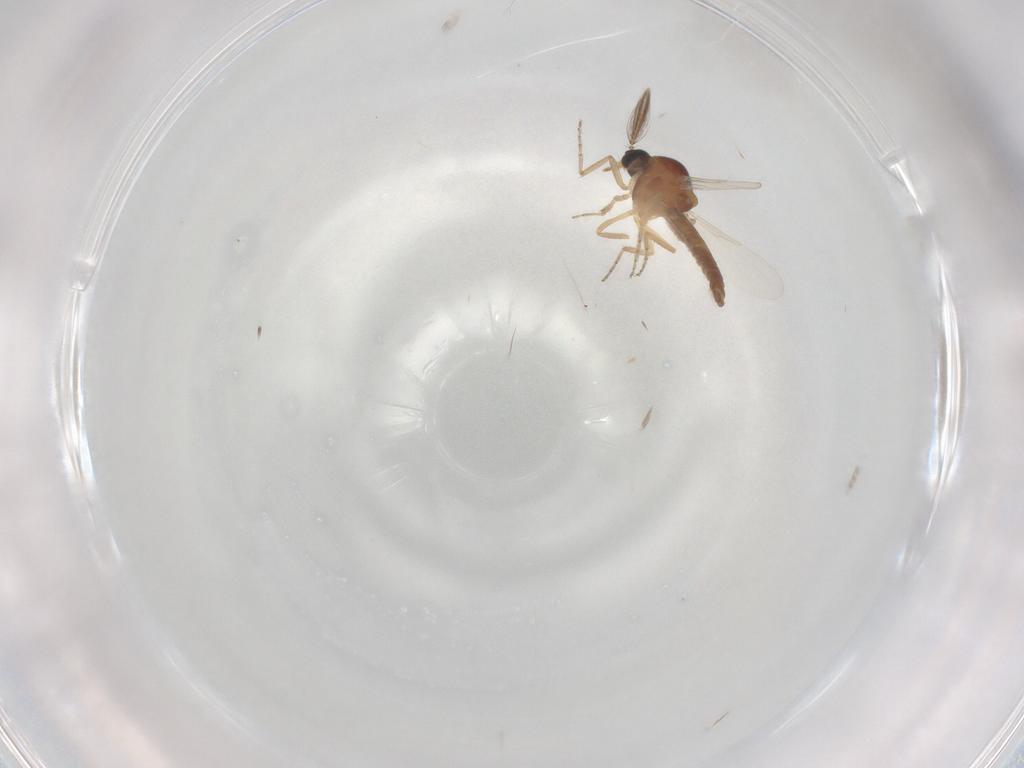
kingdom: Animalia
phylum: Arthropoda
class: Insecta
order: Diptera
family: Ceratopogonidae
